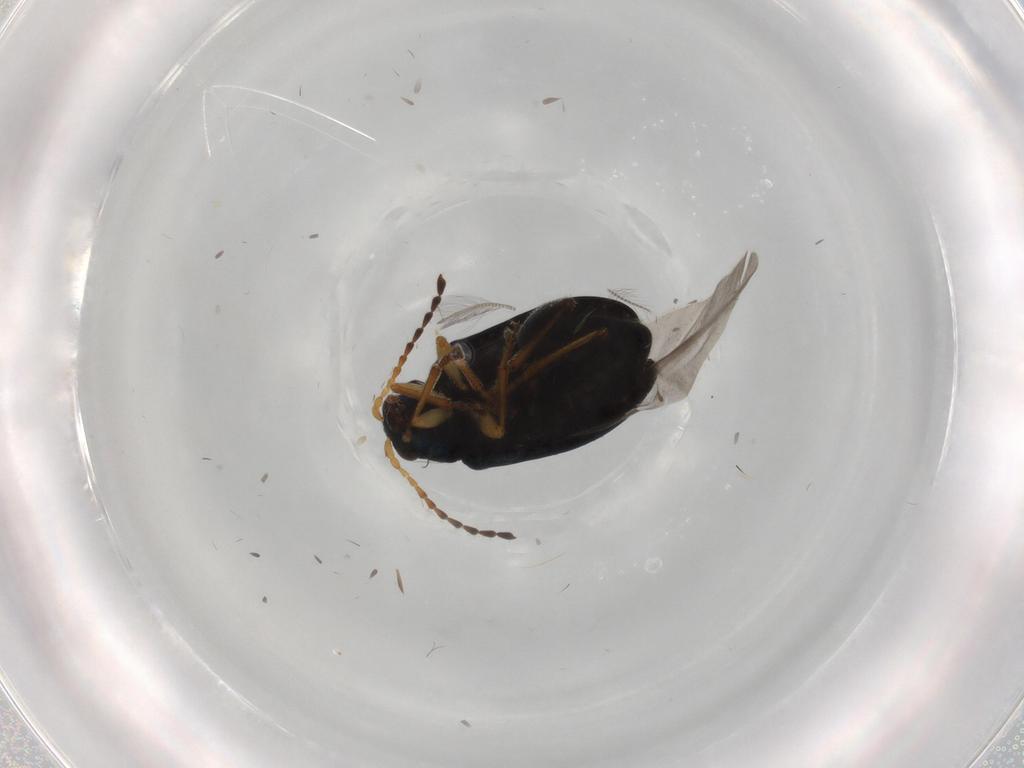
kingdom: Animalia
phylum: Arthropoda
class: Insecta
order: Coleoptera
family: Chrysomelidae
